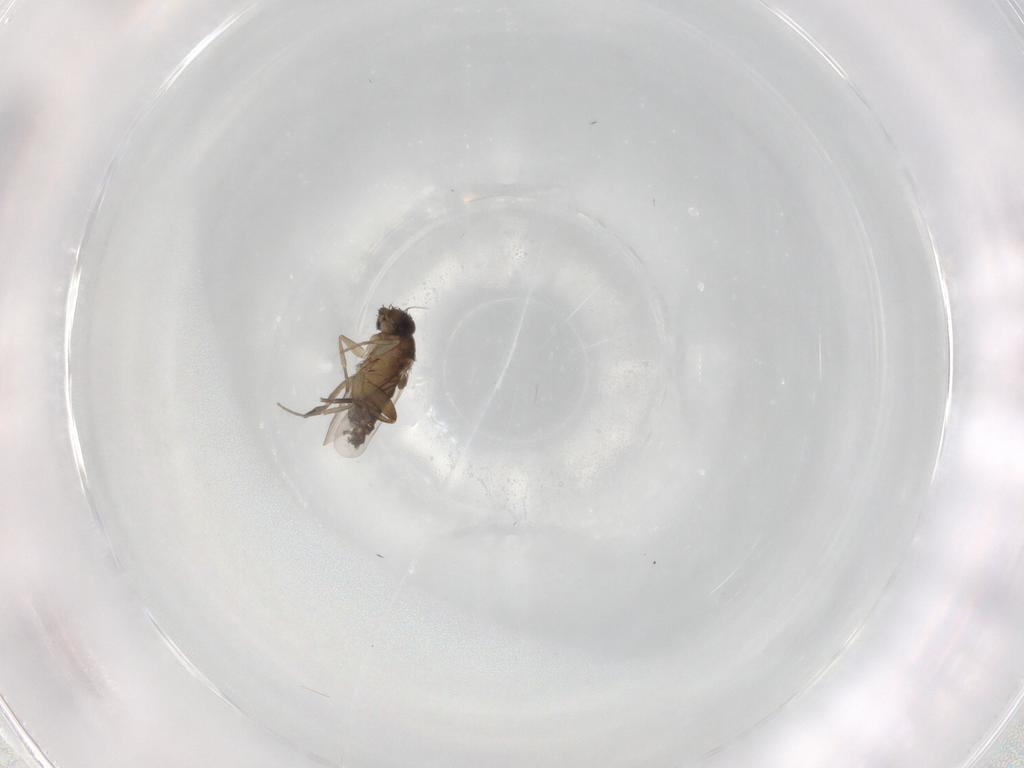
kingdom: Animalia
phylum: Arthropoda
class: Insecta
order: Diptera
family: Phoridae
